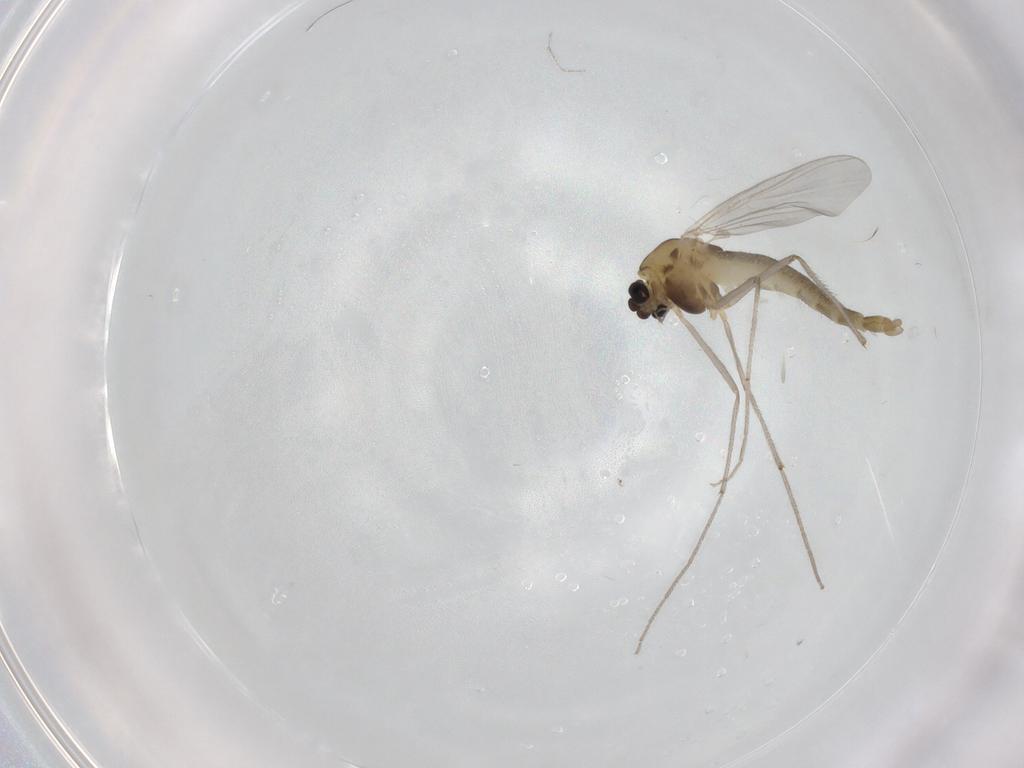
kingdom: Animalia
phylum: Arthropoda
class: Insecta
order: Diptera
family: Chironomidae
